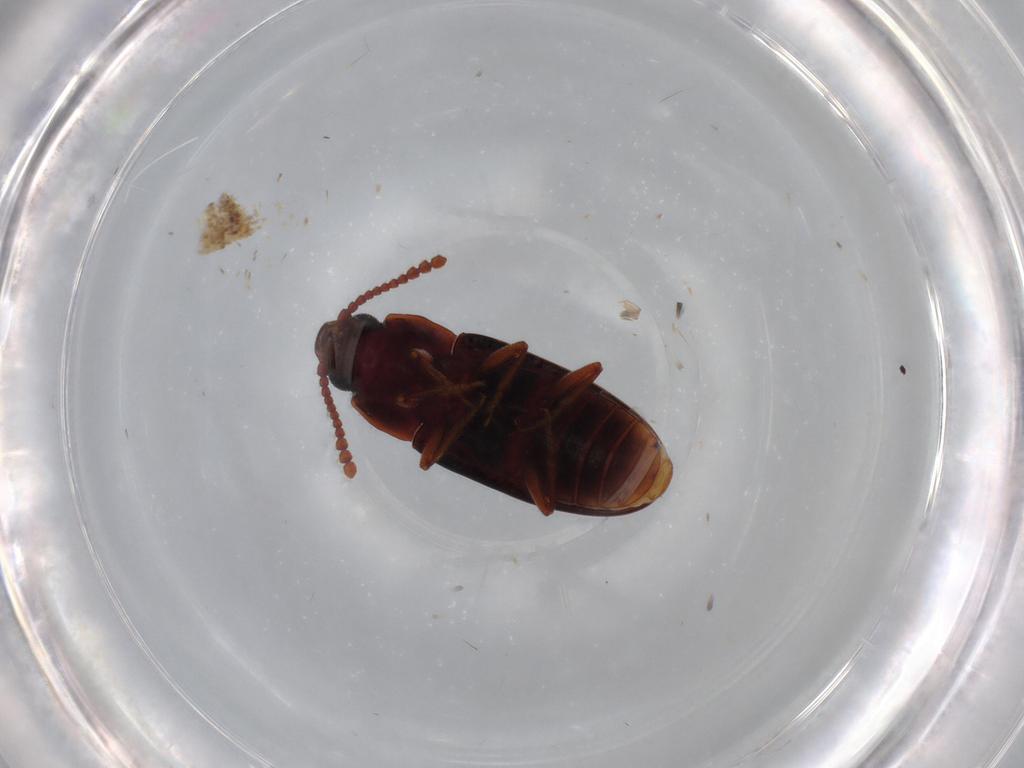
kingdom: Animalia
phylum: Arthropoda
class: Insecta
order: Coleoptera
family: Erotylidae
